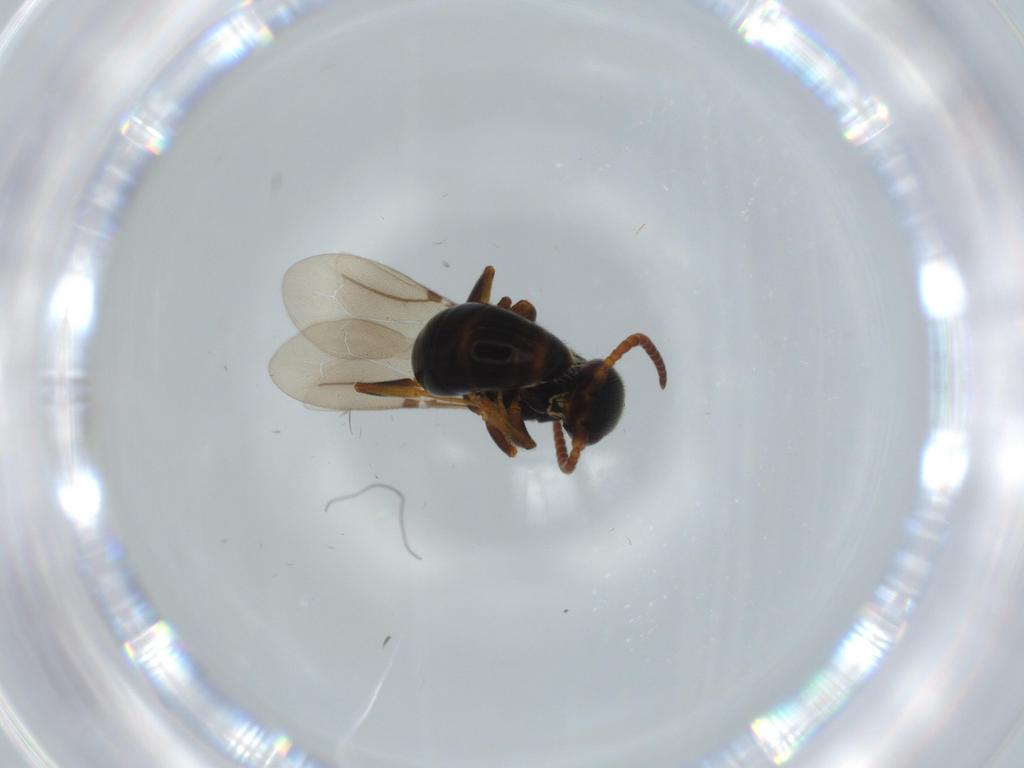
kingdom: Animalia
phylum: Arthropoda
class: Insecta
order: Hymenoptera
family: Bethylidae
